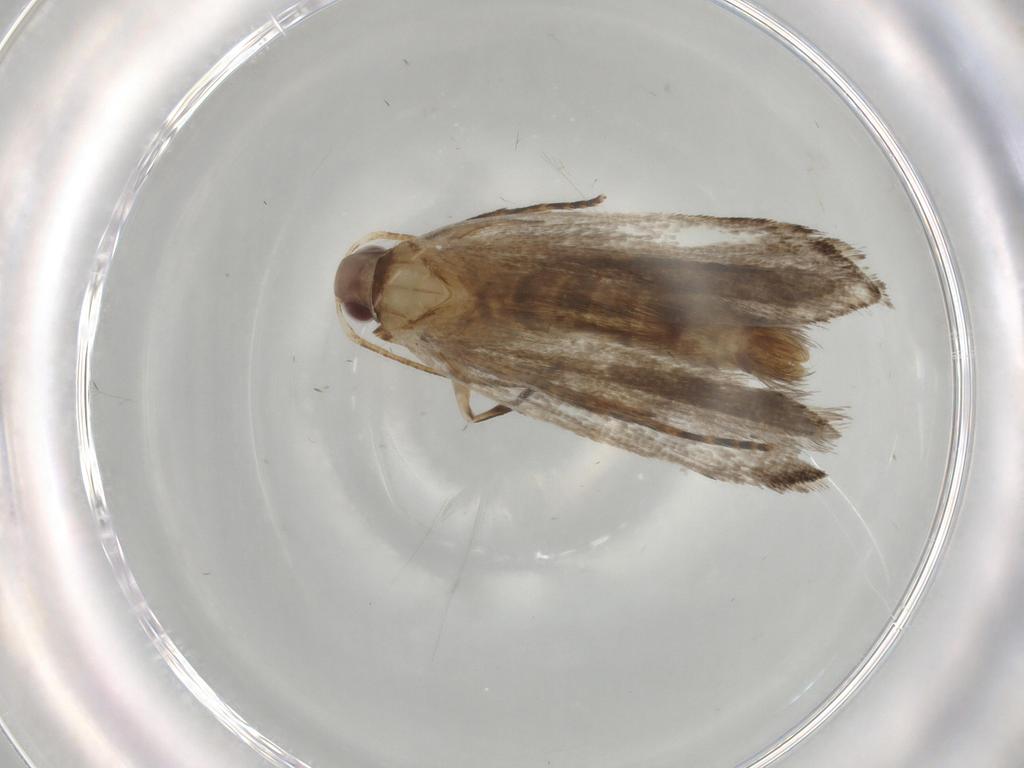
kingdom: Animalia
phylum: Arthropoda
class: Insecta
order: Lepidoptera
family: Gelechiidae
